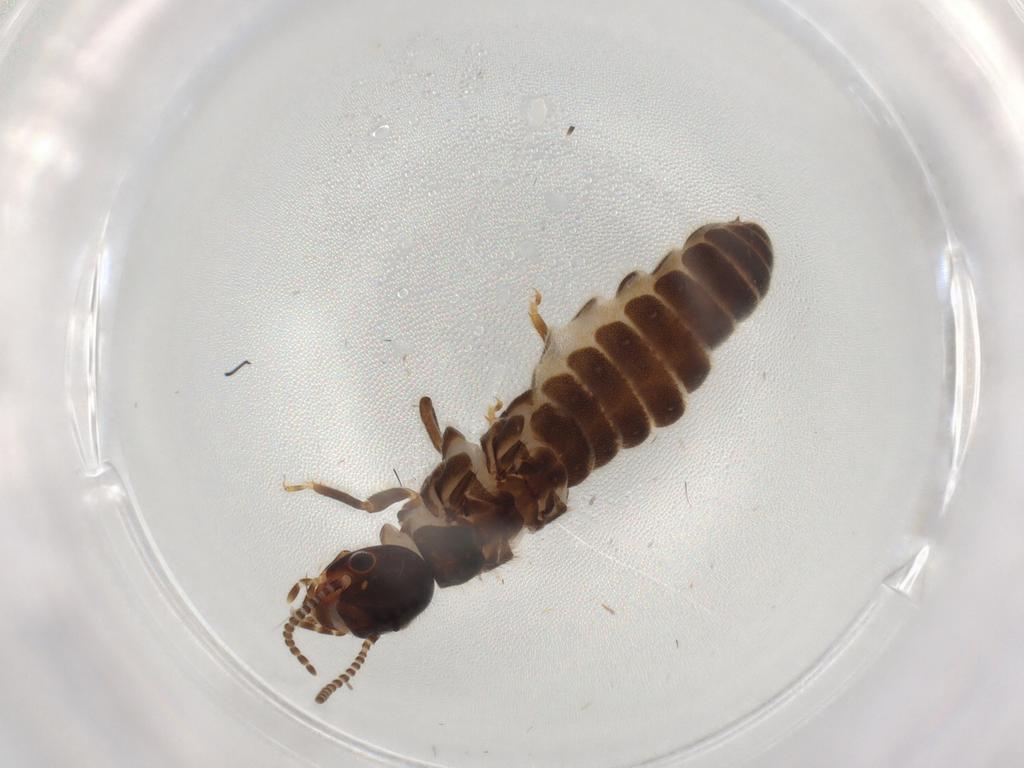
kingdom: Animalia
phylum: Arthropoda
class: Insecta
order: Blattodea
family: Termitidae
